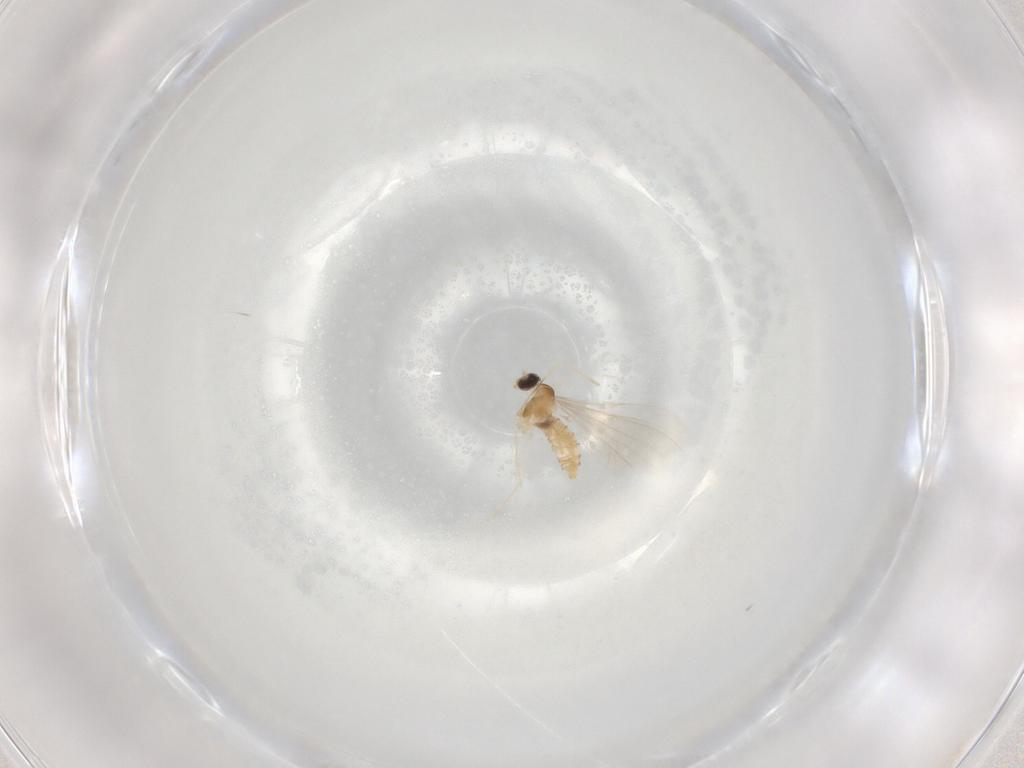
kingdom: Animalia
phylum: Arthropoda
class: Insecta
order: Diptera
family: Cecidomyiidae
